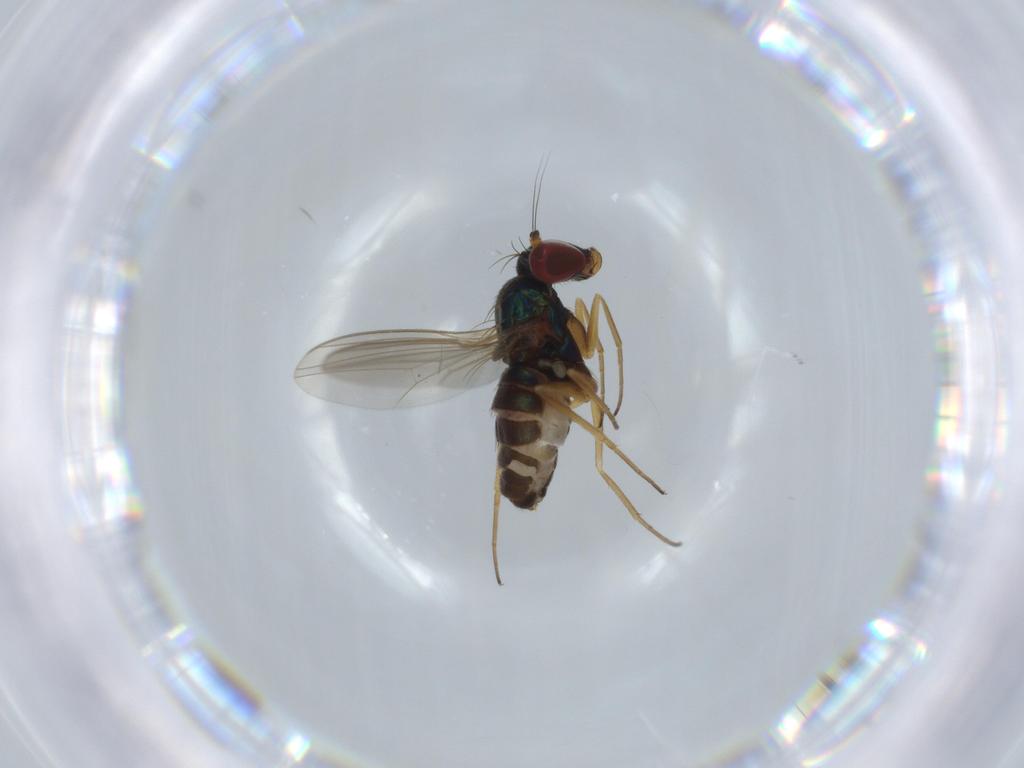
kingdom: Animalia
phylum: Arthropoda
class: Insecta
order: Diptera
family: Dolichopodidae
